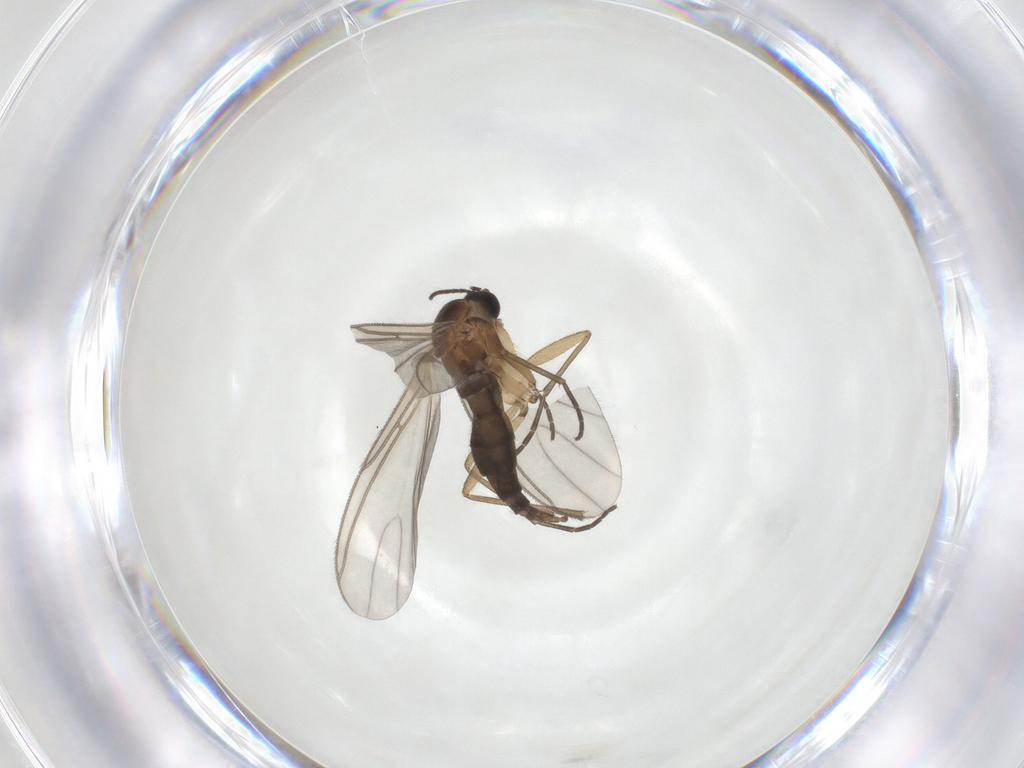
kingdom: Animalia
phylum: Arthropoda
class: Insecta
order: Diptera
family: Sciaridae
